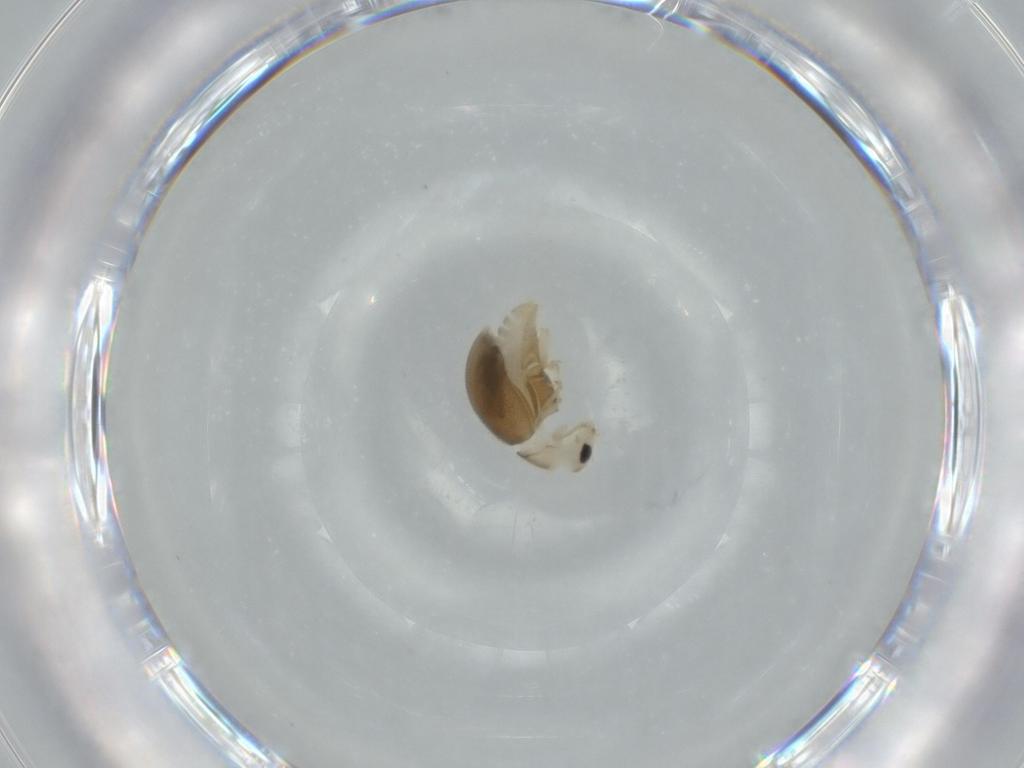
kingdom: Animalia
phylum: Arthropoda
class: Insecta
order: Coleoptera
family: Coccinellidae
